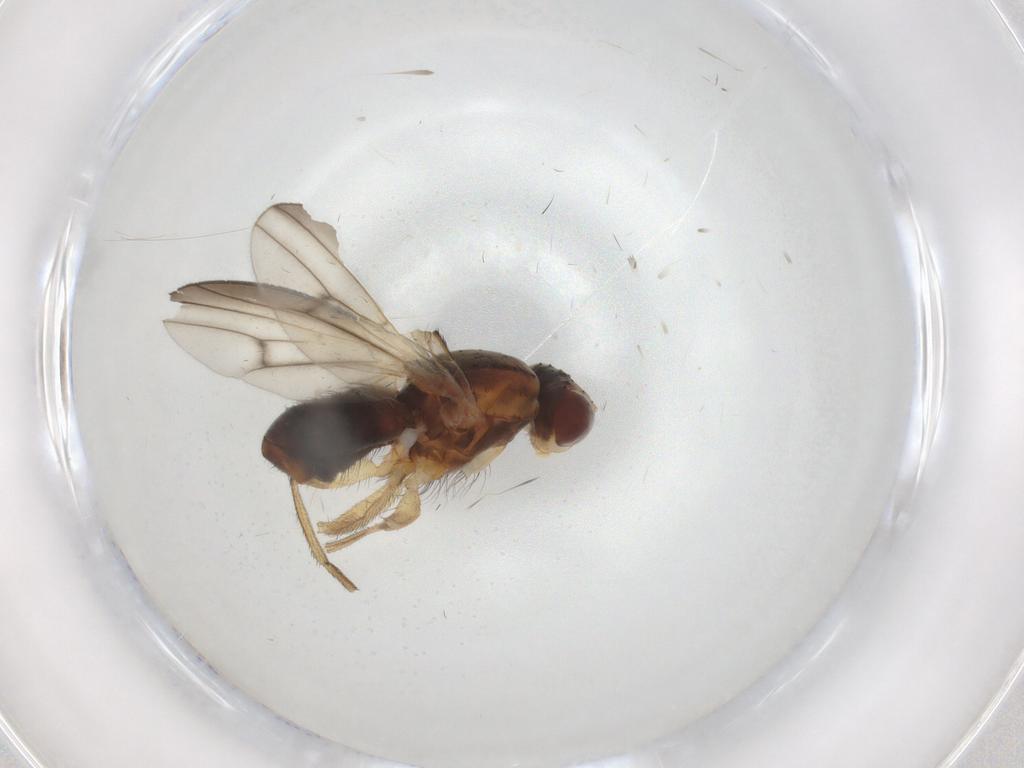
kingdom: Animalia
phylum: Arthropoda
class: Insecta
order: Diptera
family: Heleomyzidae
